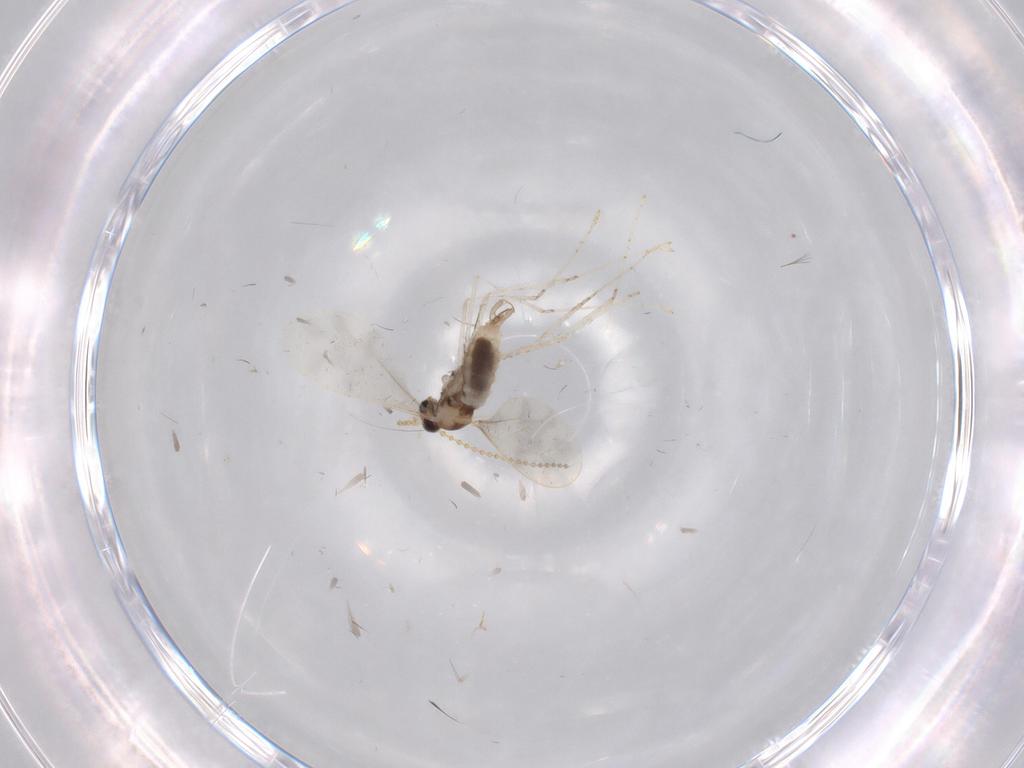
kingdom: Animalia
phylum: Arthropoda
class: Insecta
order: Diptera
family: Cecidomyiidae
